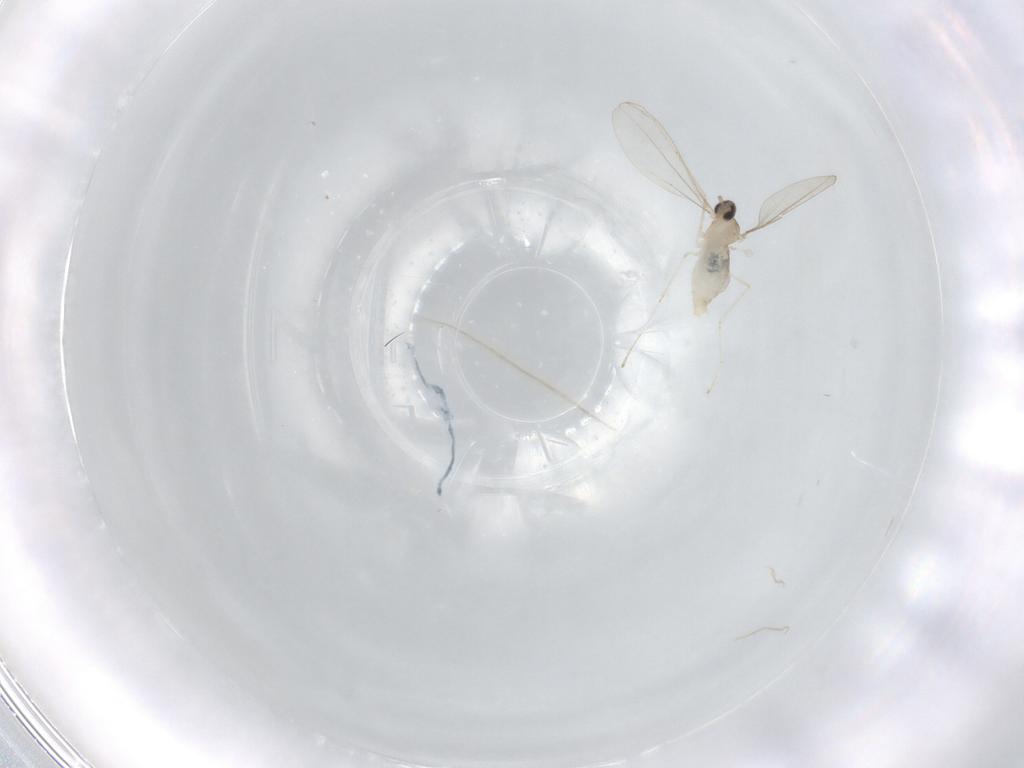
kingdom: Animalia
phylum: Arthropoda
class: Insecta
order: Diptera
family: Cecidomyiidae
